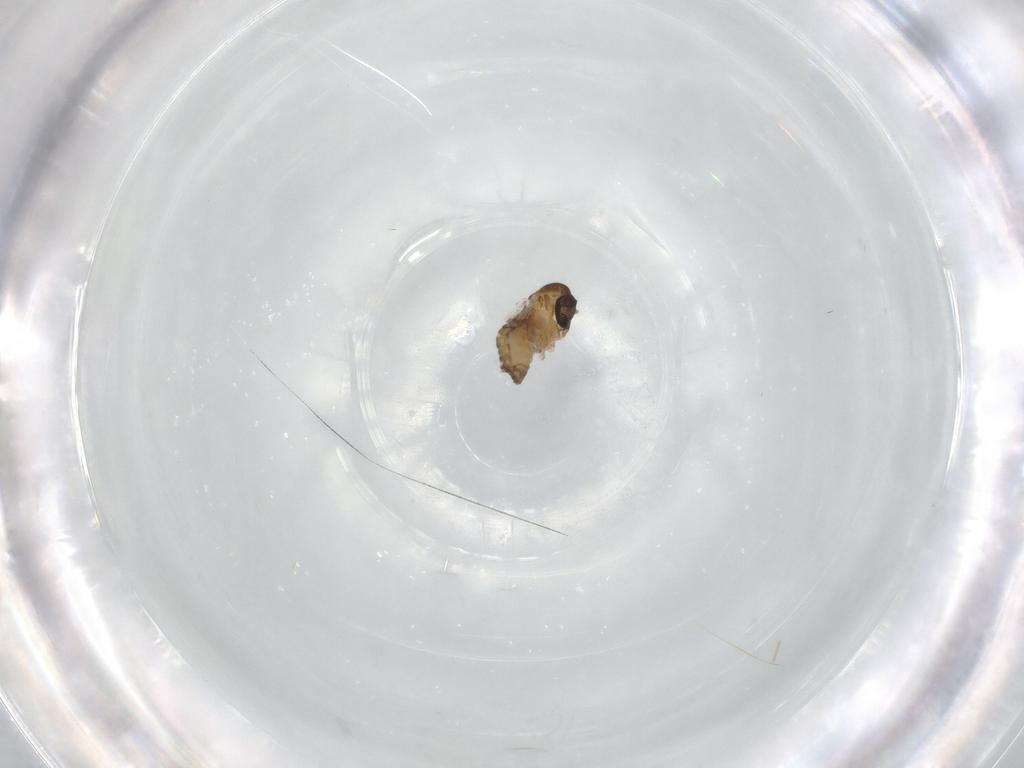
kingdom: Animalia
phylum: Arthropoda
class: Insecta
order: Diptera
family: Psychodidae
